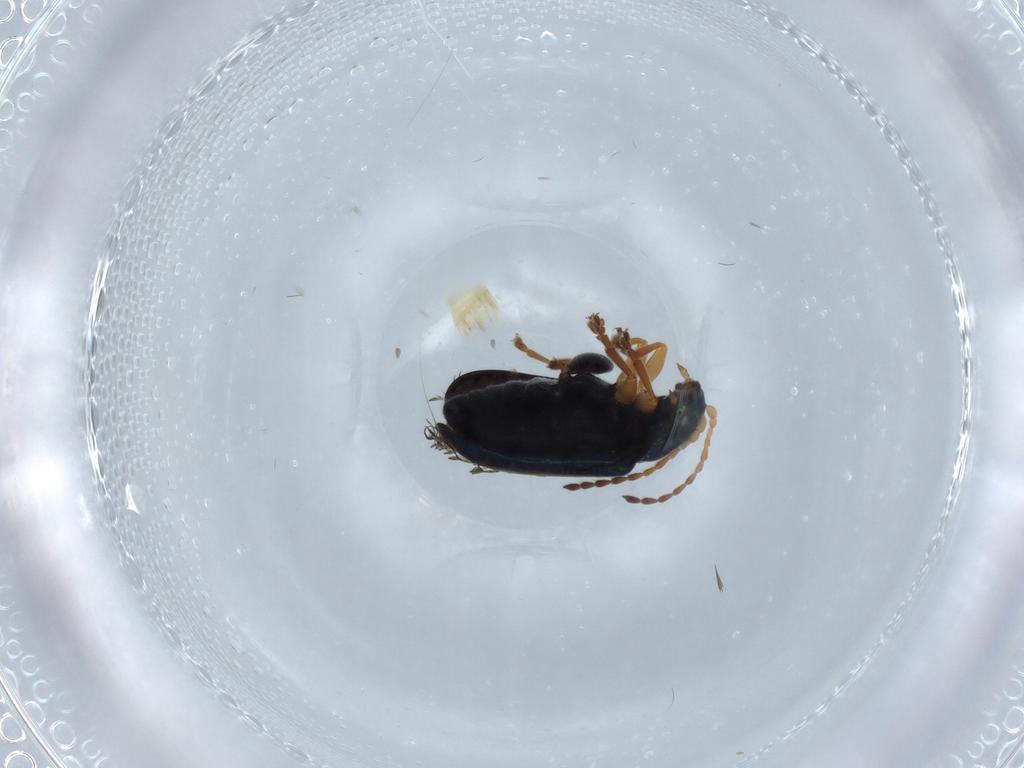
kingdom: Animalia
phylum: Arthropoda
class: Insecta
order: Coleoptera
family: Chrysomelidae
